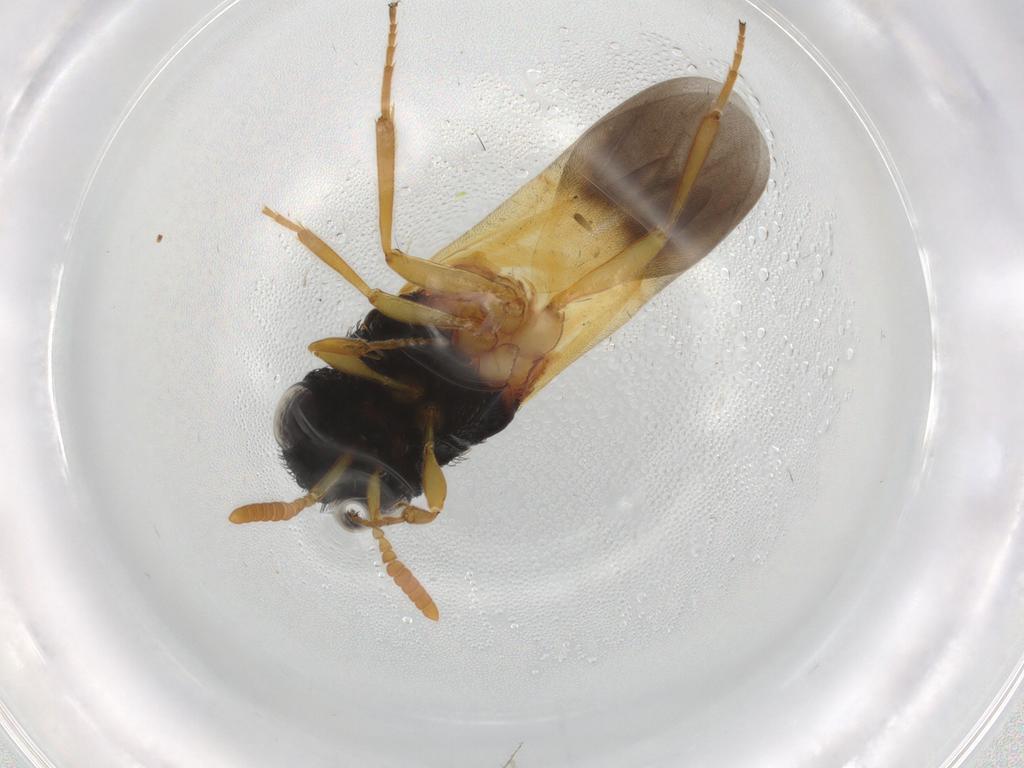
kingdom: Animalia
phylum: Arthropoda
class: Insecta
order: Hymenoptera
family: Scelionidae
